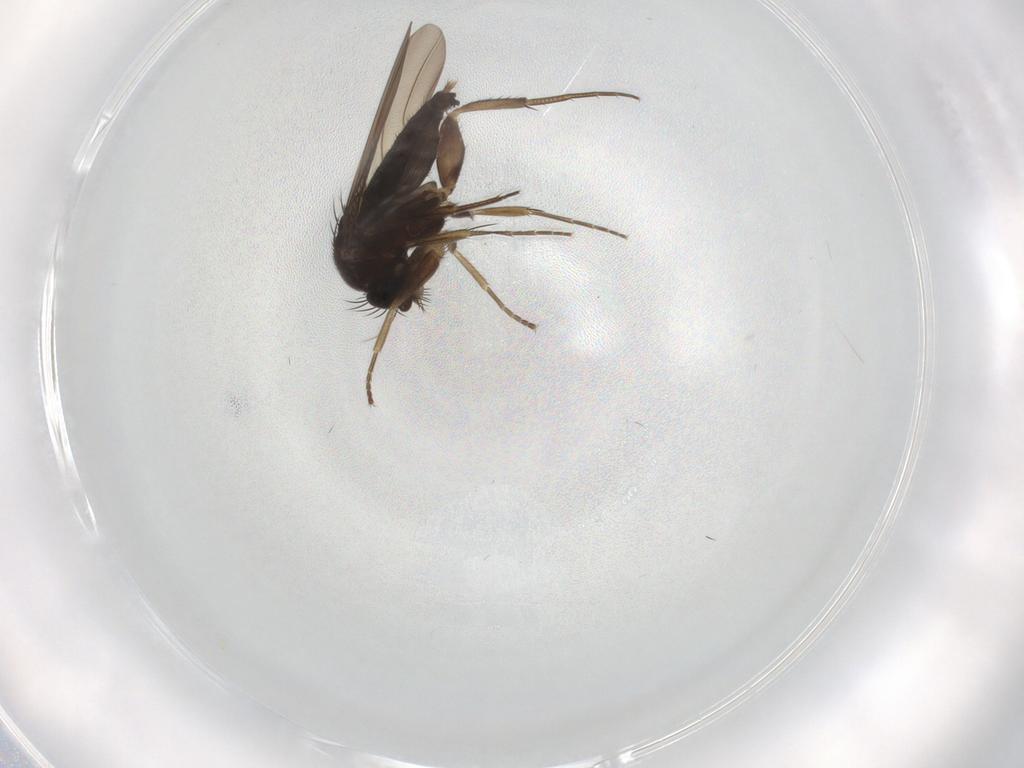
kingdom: Animalia
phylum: Arthropoda
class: Insecta
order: Diptera
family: Phoridae
